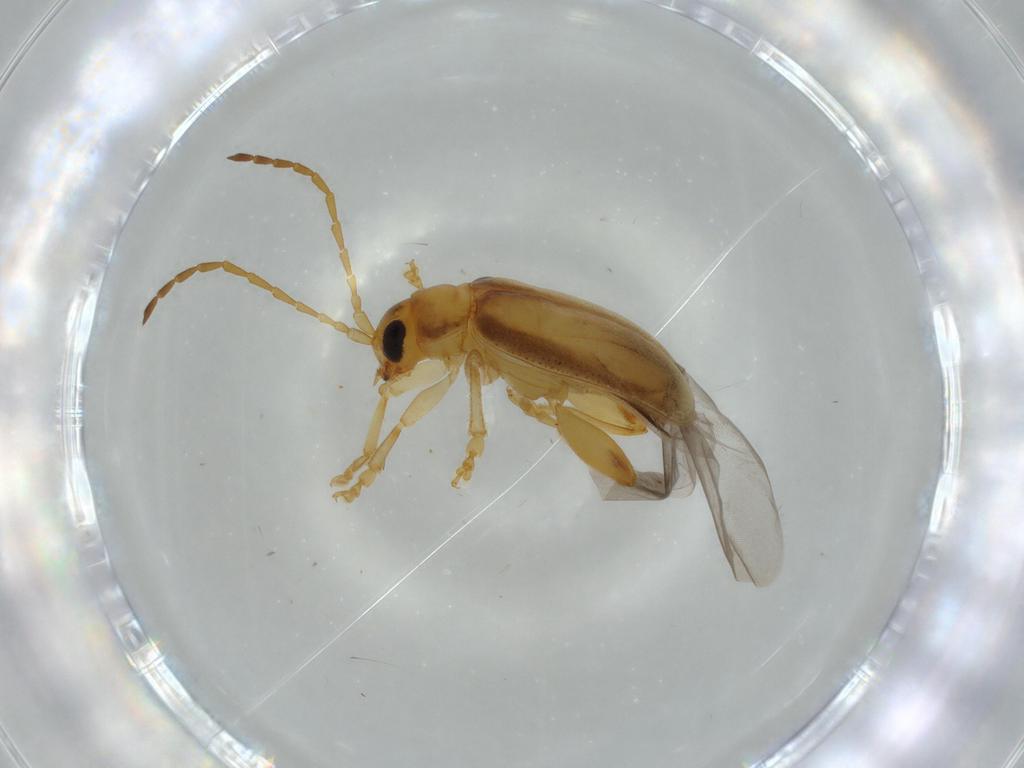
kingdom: Animalia
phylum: Arthropoda
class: Insecta
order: Coleoptera
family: Chrysomelidae
